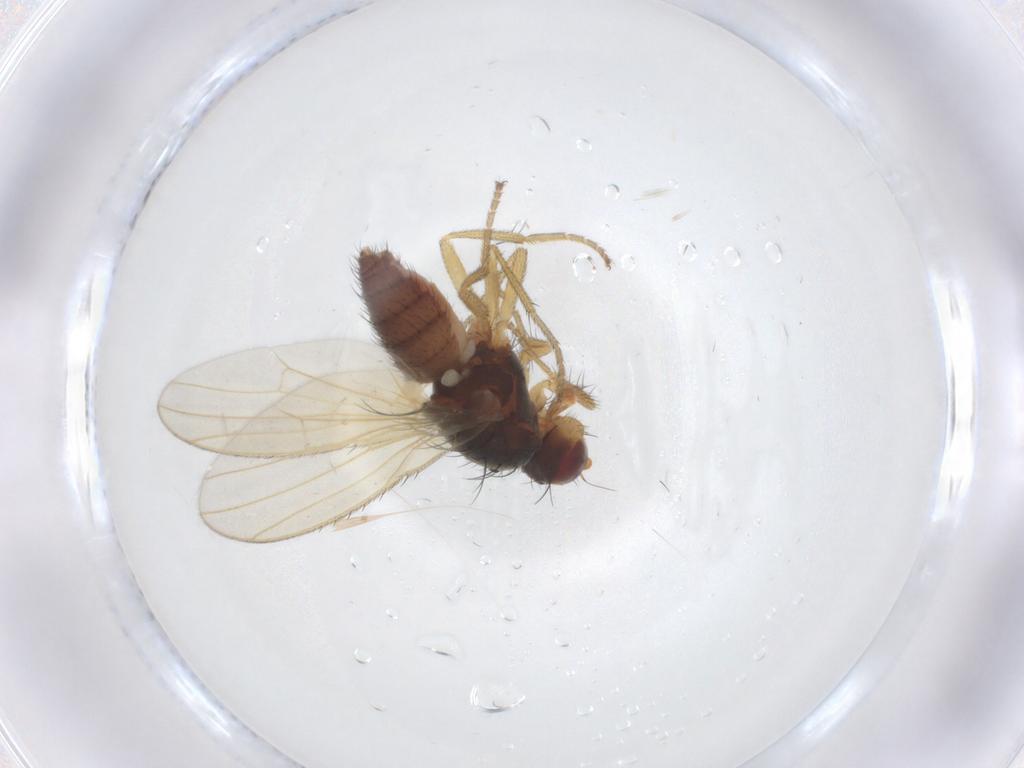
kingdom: Animalia
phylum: Arthropoda
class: Insecta
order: Diptera
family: Heleomyzidae
